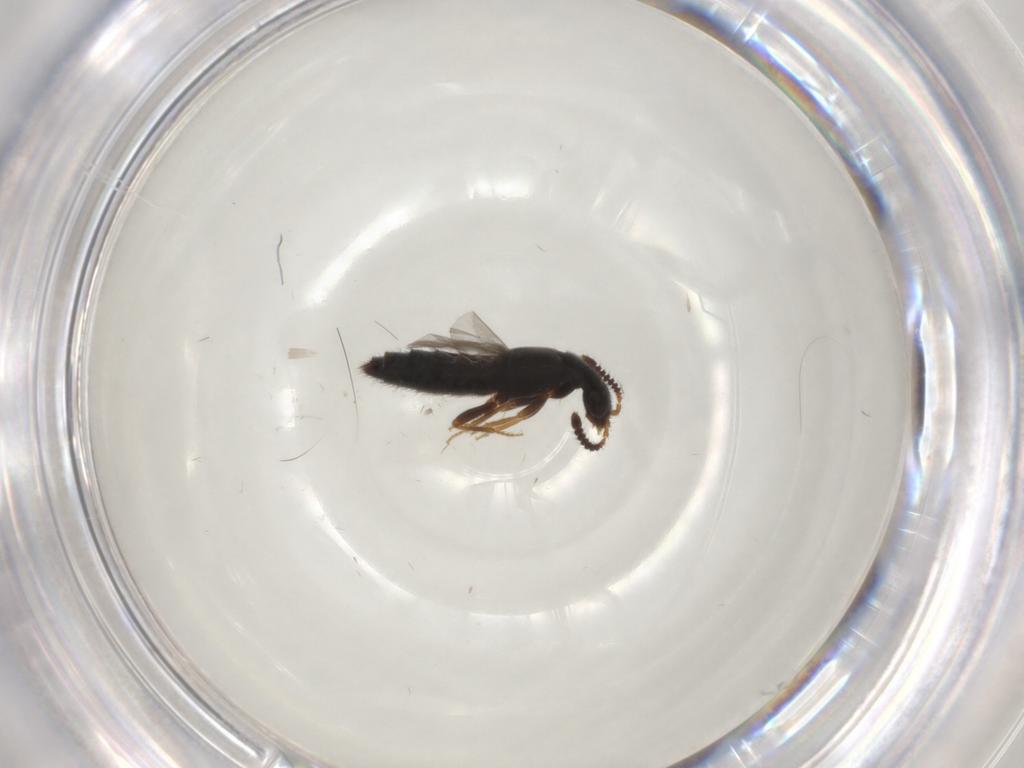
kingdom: Animalia
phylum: Arthropoda
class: Insecta
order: Coleoptera
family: Chrysomelidae
